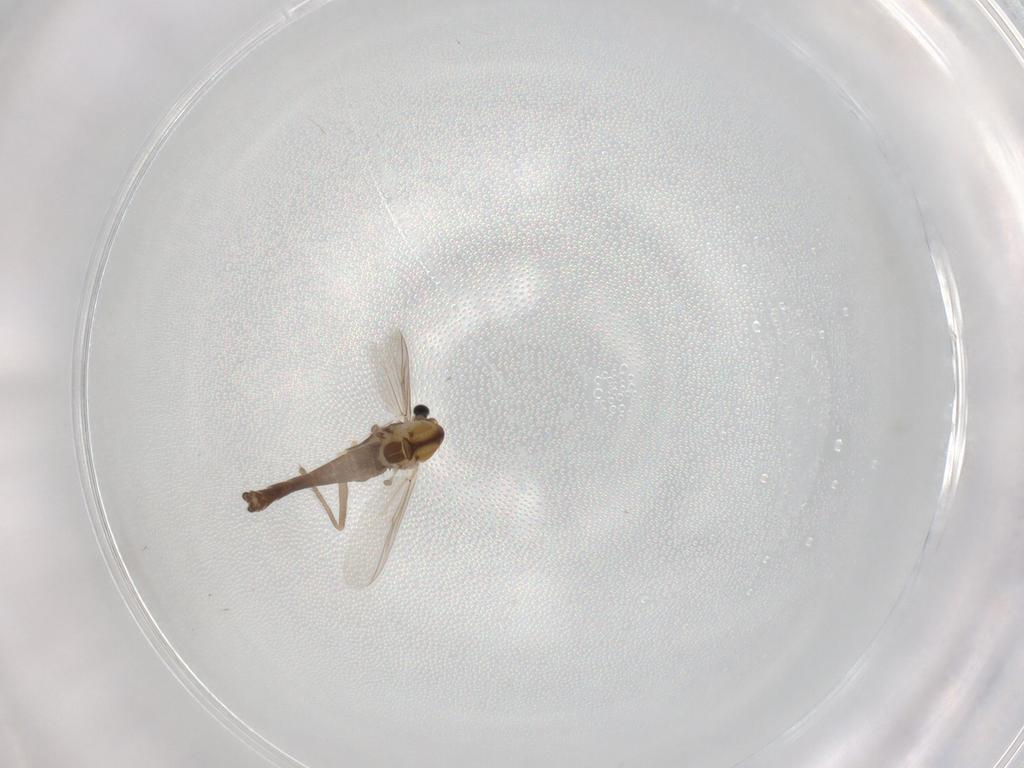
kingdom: Animalia
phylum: Arthropoda
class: Insecta
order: Diptera
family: Chironomidae
